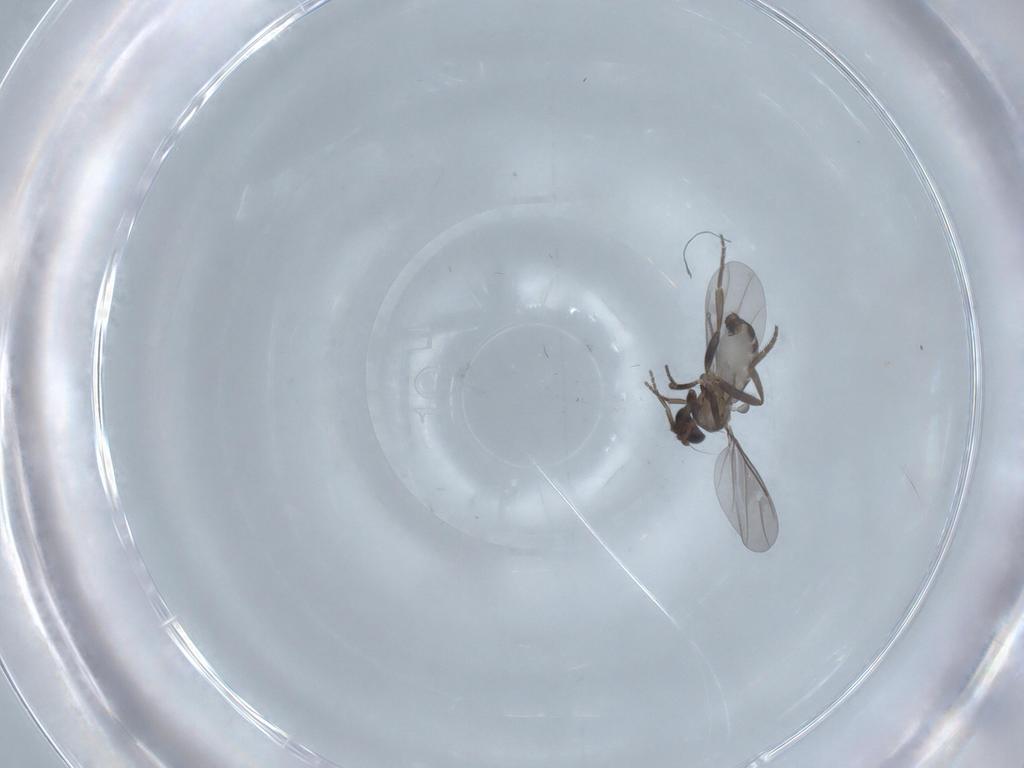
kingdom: Animalia
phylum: Arthropoda
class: Insecta
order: Diptera
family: Phoridae
